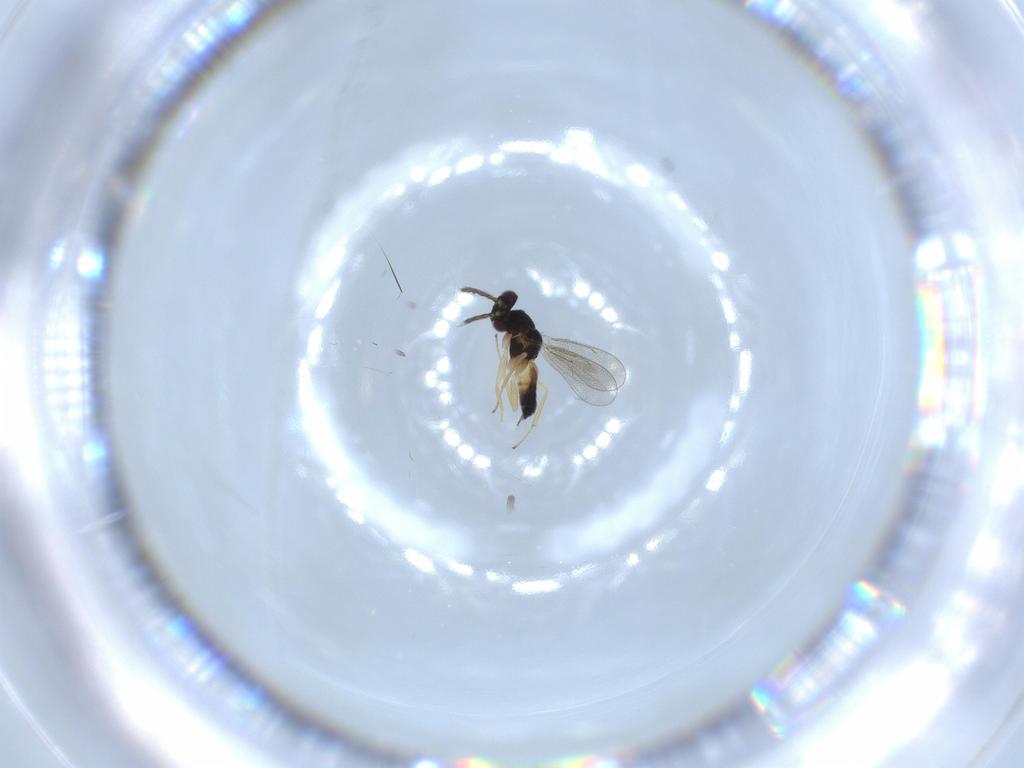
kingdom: Animalia
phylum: Arthropoda
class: Insecta
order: Hymenoptera
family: Eulophidae
